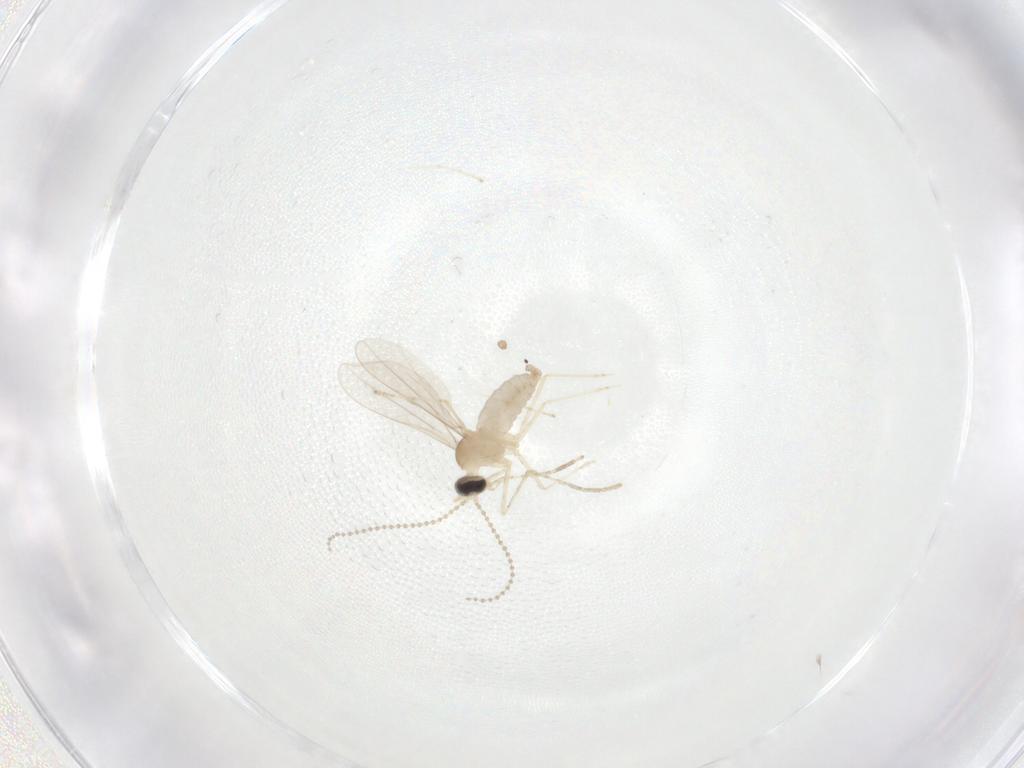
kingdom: Animalia
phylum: Arthropoda
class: Insecta
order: Diptera
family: Cecidomyiidae
